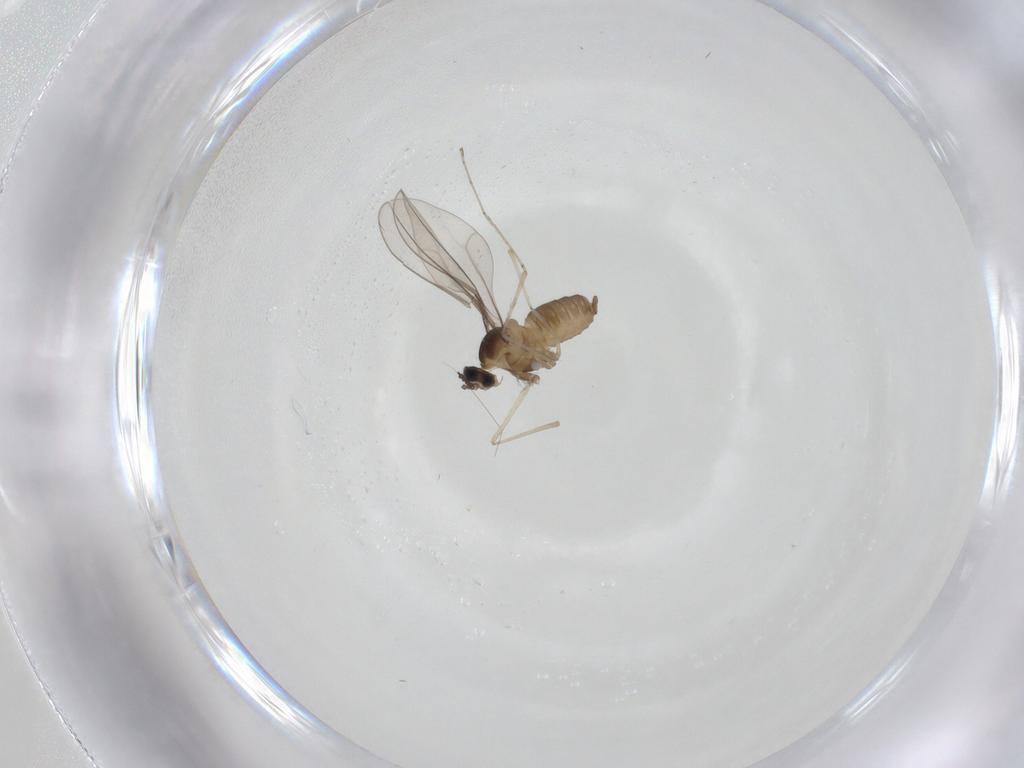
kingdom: Animalia
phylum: Arthropoda
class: Insecta
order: Diptera
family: Cecidomyiidae
